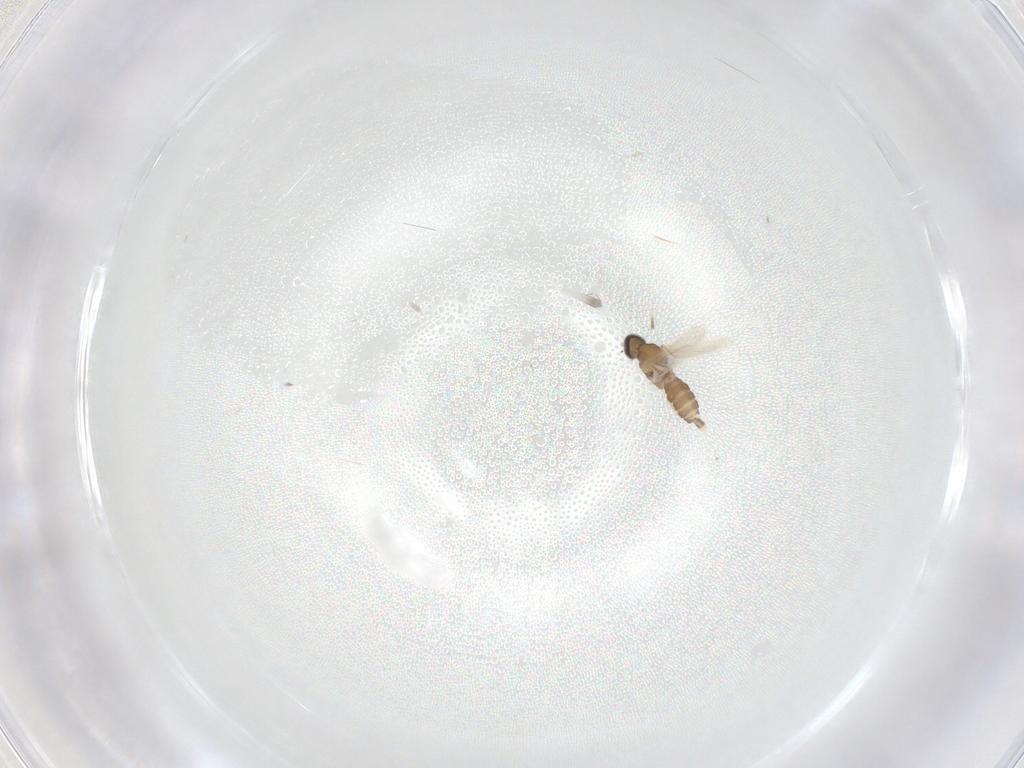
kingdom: Animalia
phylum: Arthropoda
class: Insecta
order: Diptera
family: Cecidomyiidae
